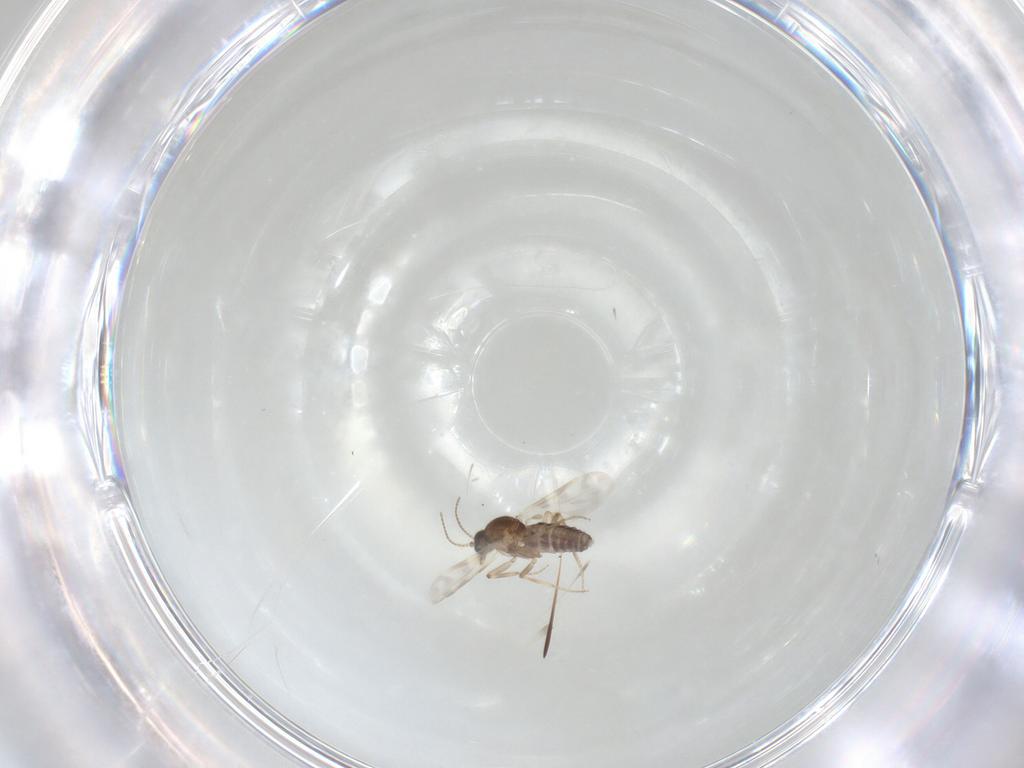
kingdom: Animalia
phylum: Arthropoda
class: Insecta
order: Diptera
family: Ceratopogonidae
